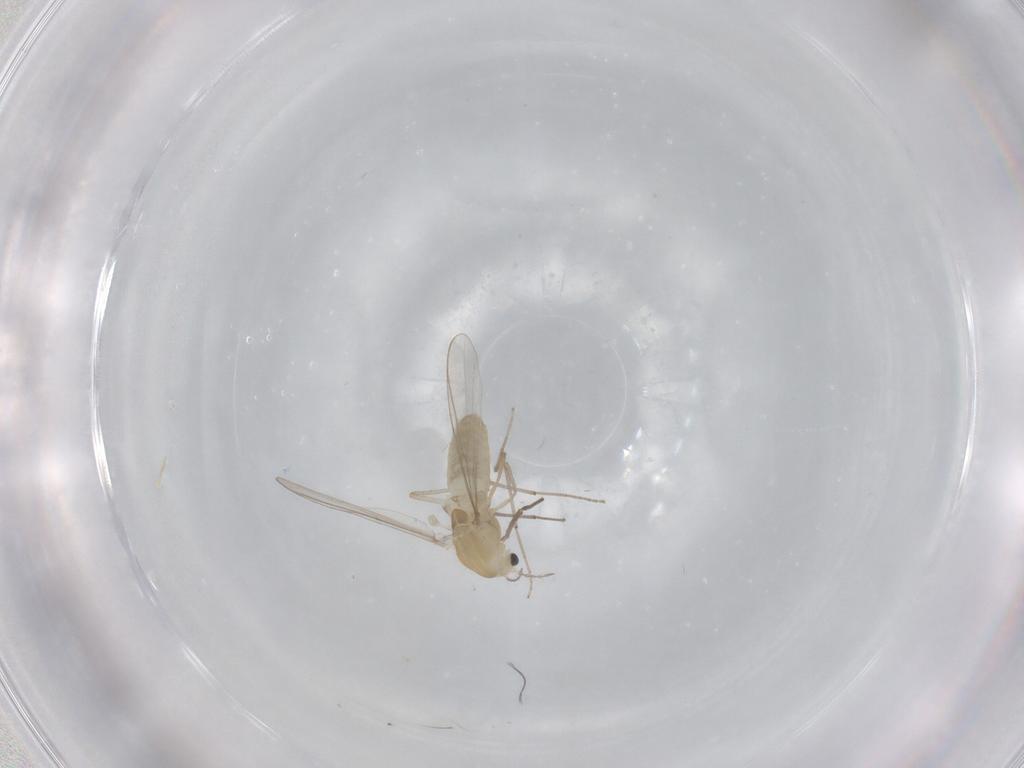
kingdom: Animalia
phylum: Arthropoda
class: Insecta
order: Diptera
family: Chironomidae
